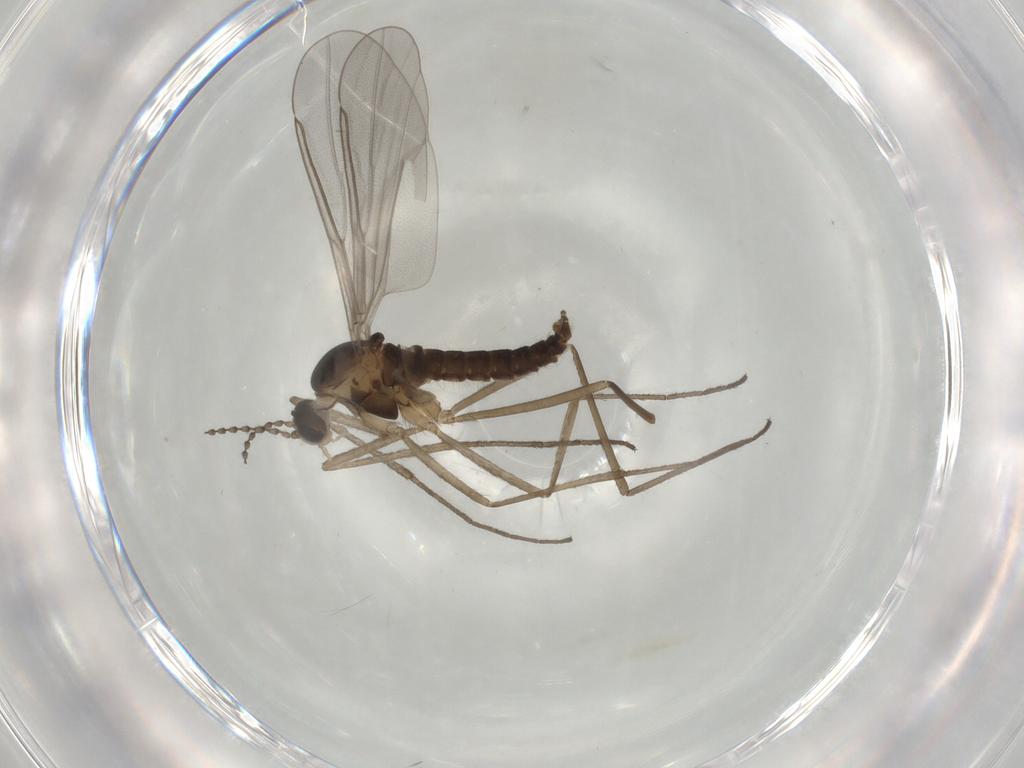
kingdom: Animalia
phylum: Arthropoda
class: Insecta
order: Diptera
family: Cecidomyiidae
